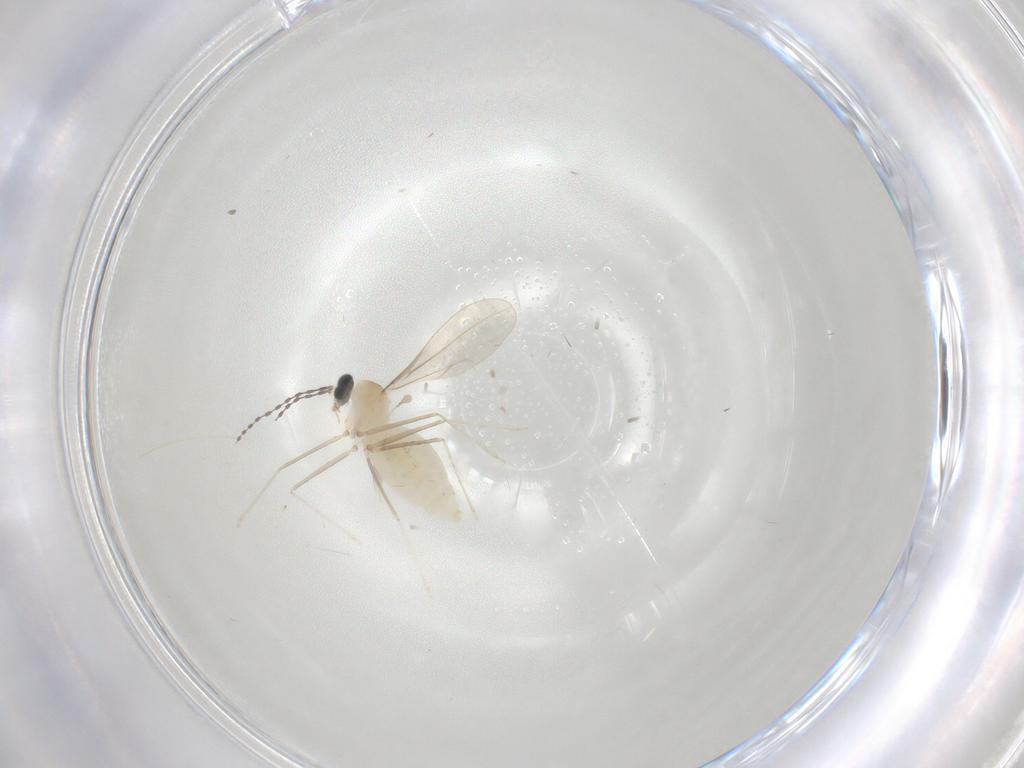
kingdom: Animalia
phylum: Arthropoda
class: Insecta
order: Diptera
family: Cecidomyiidae
